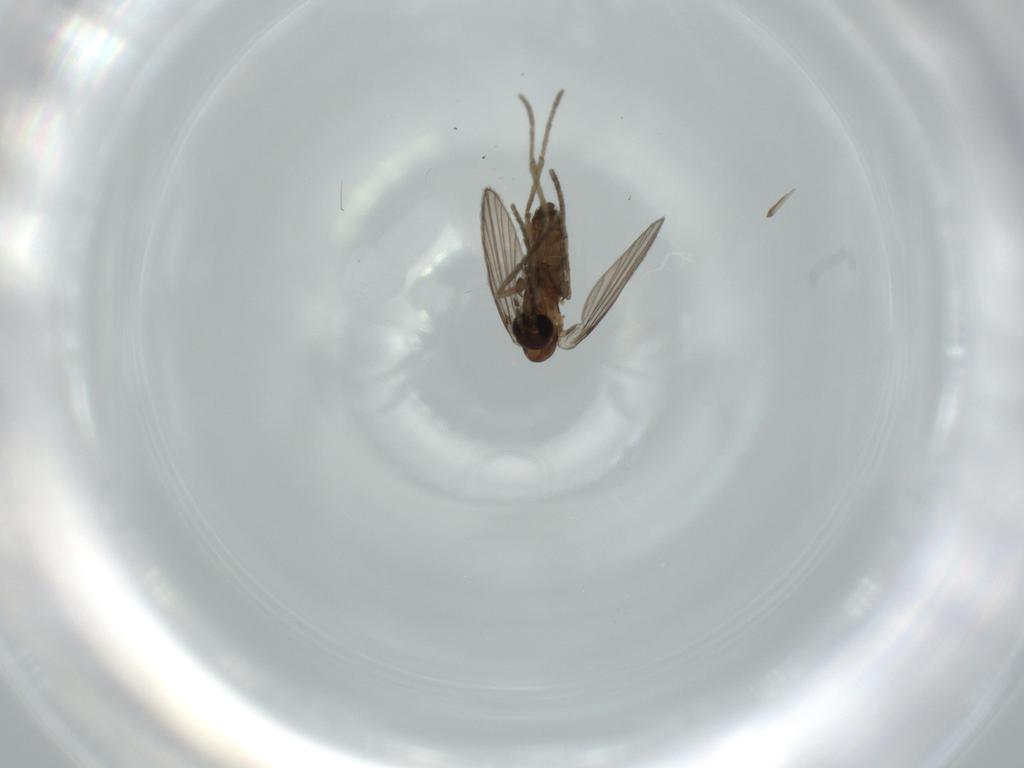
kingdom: Animalia
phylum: Arthropoda
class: Insecta
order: Diptera
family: Psychodidae
